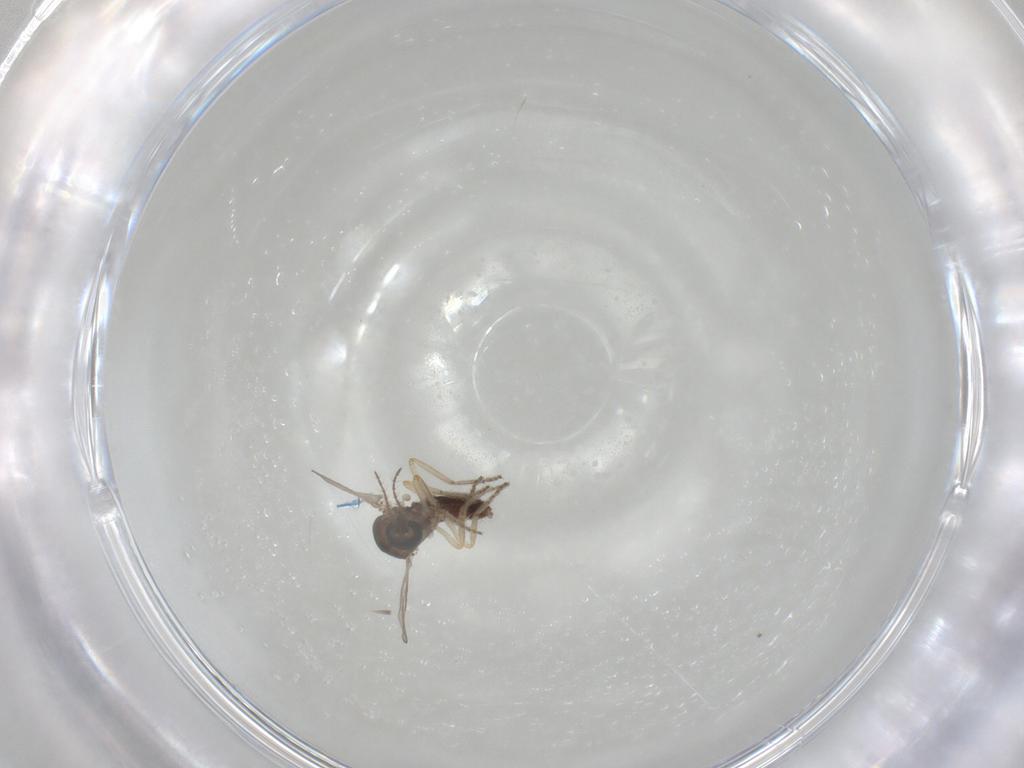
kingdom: Animalia
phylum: Arthropoda
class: Insecta
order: Diptera
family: Ceratopogonidae
